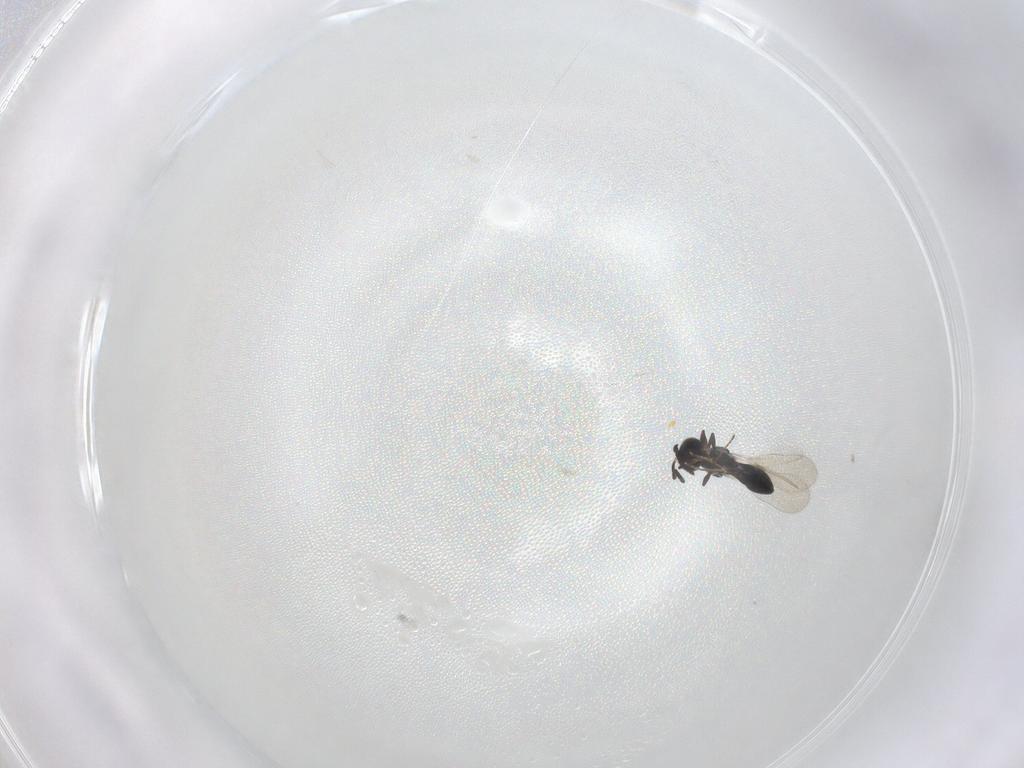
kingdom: Animalia
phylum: Arthropoda
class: Insecta
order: Hymenoptera
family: Platygastridae
